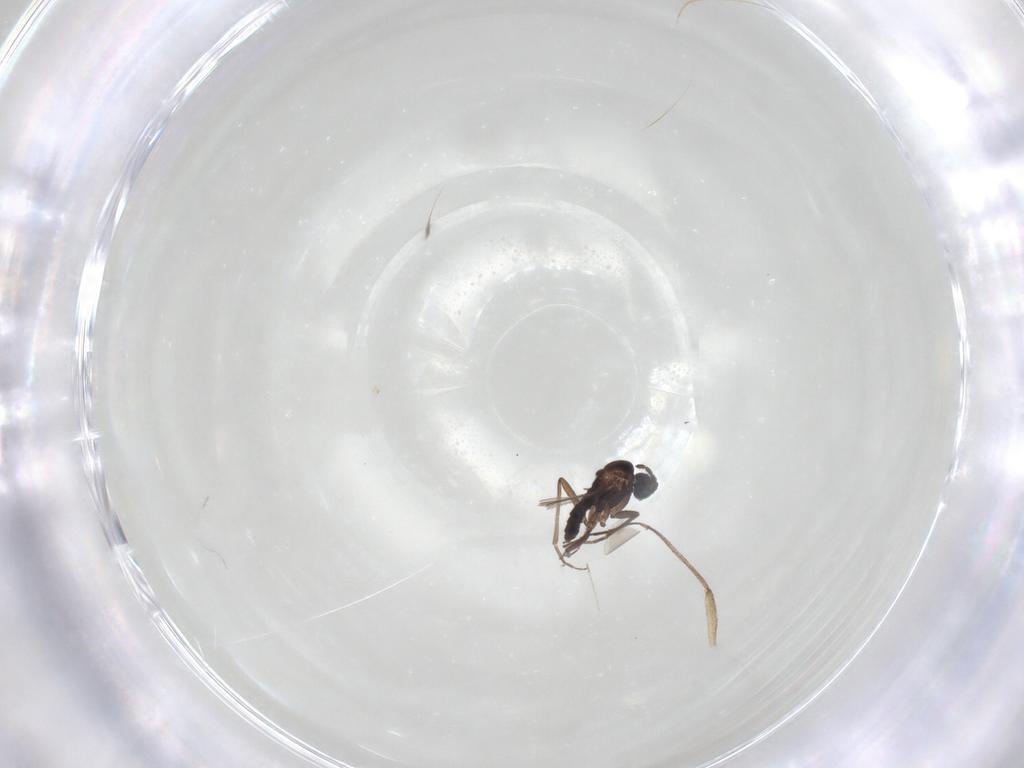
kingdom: Animalia
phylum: Arthropoda
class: Insecta
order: Diptera
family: Sciaridae
